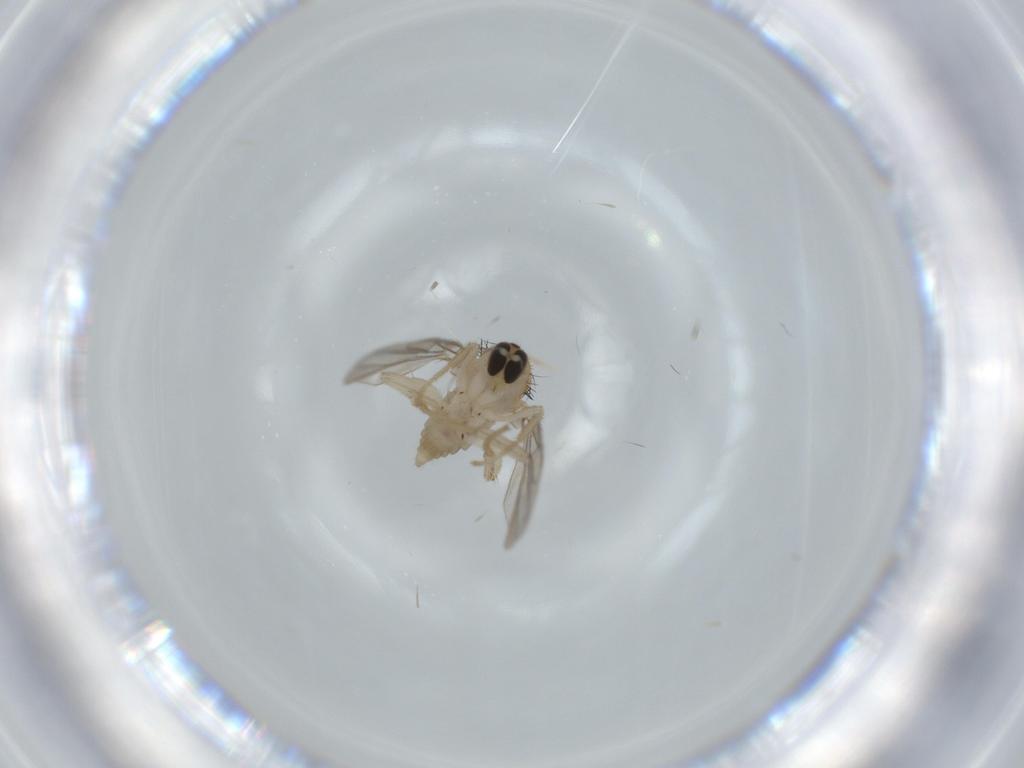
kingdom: Animalia
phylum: Arthropoda
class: Insecta
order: Diptera
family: Hybotidae
